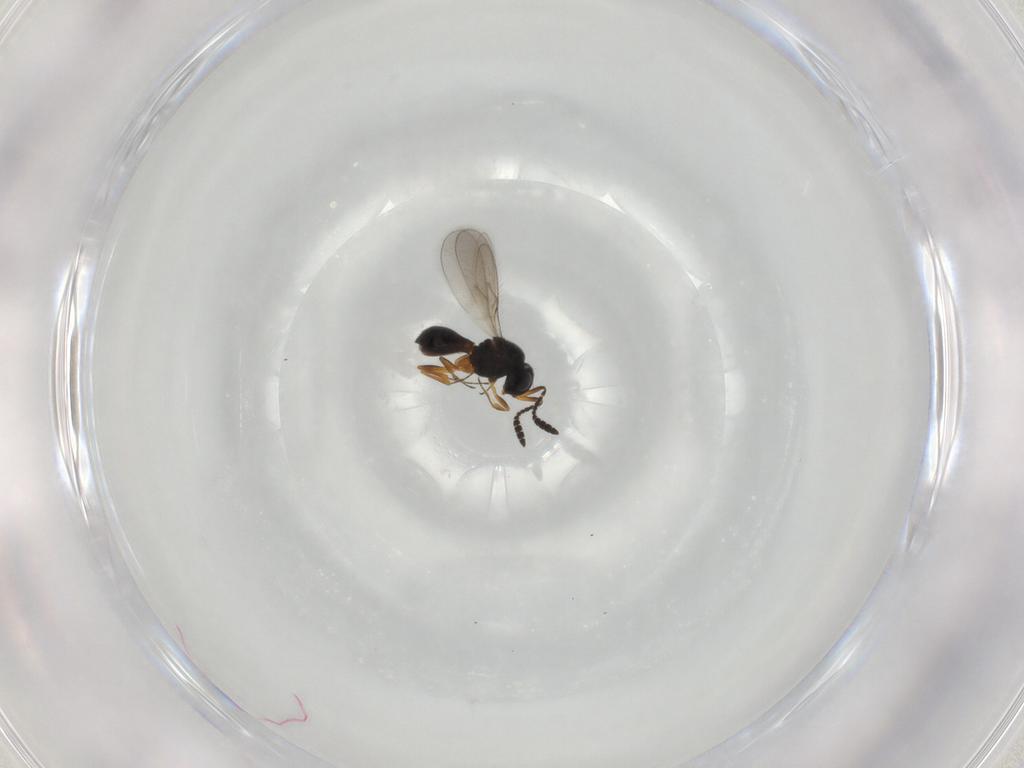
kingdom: Animalia
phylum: Arthropoda
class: Insecta
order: Hymenoptera
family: Scelionidae
